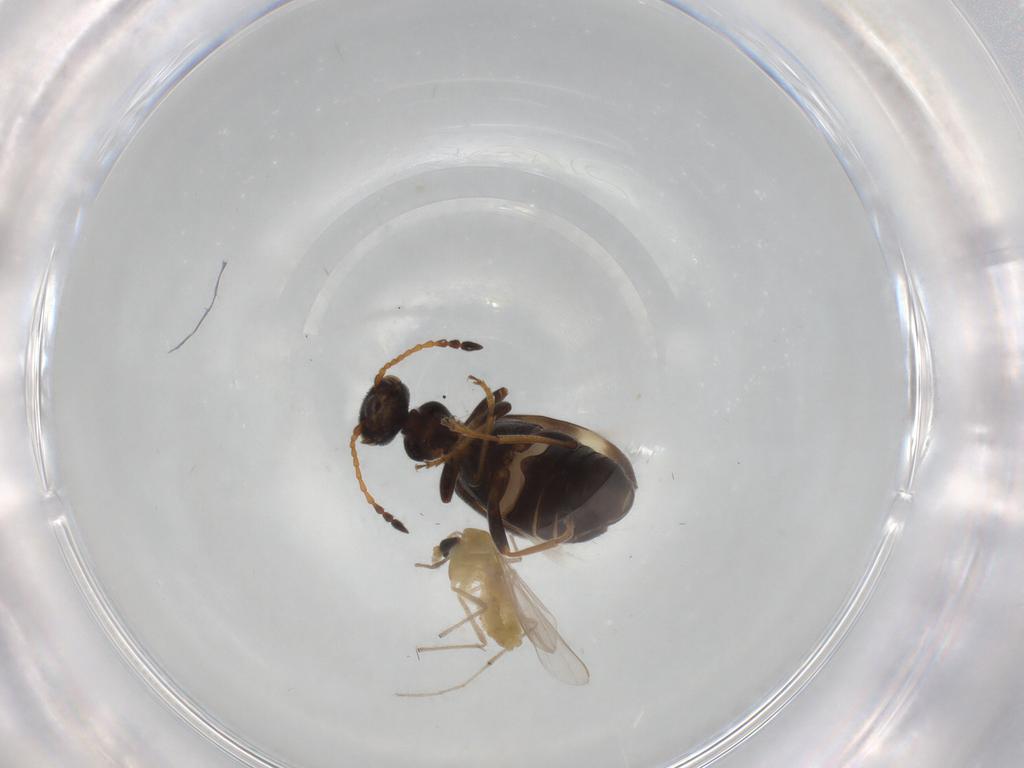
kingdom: Animalia
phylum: Arthropoda
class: Insecta
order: Coleoptera
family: Anthicidae
